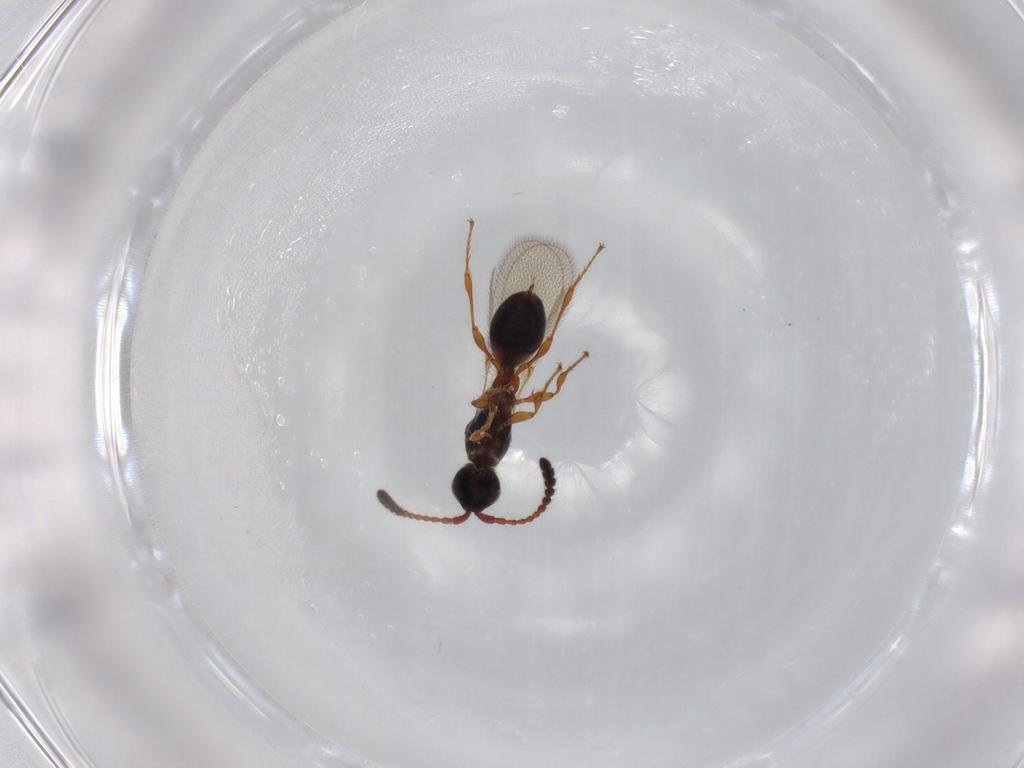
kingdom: Animalia
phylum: Arthropoda
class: Insecta
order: Hymenoptera
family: Diapriidae
